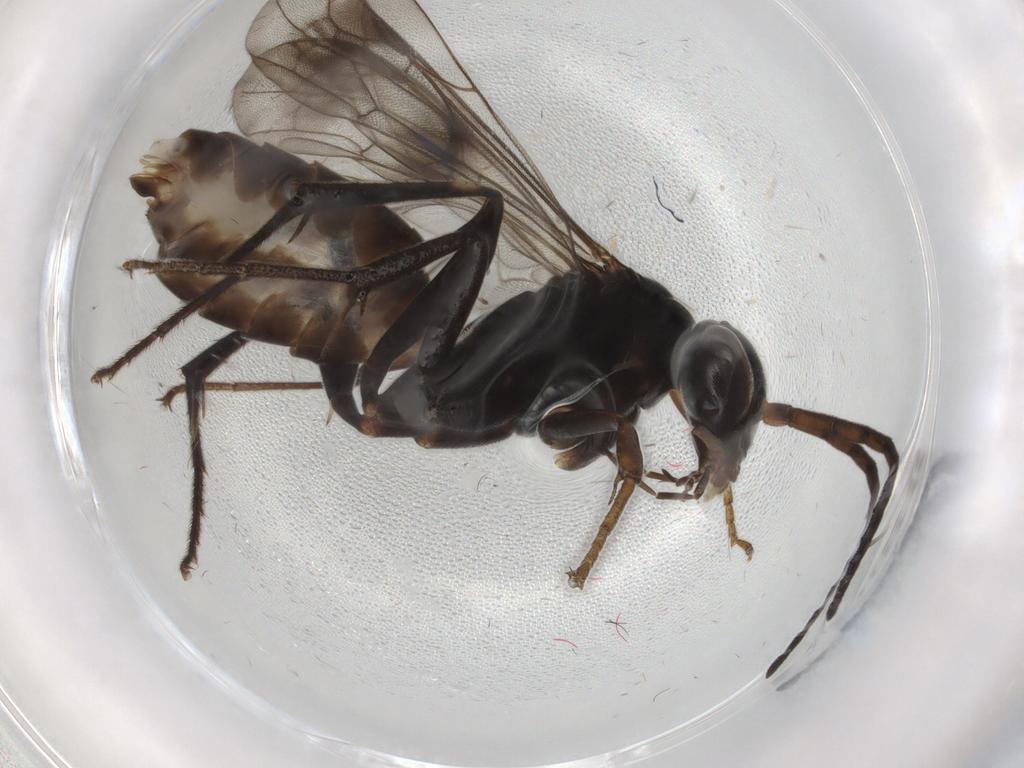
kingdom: Animalia
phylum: Arthropoda
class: Insecta
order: Hymenoptera
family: Pompilidae
